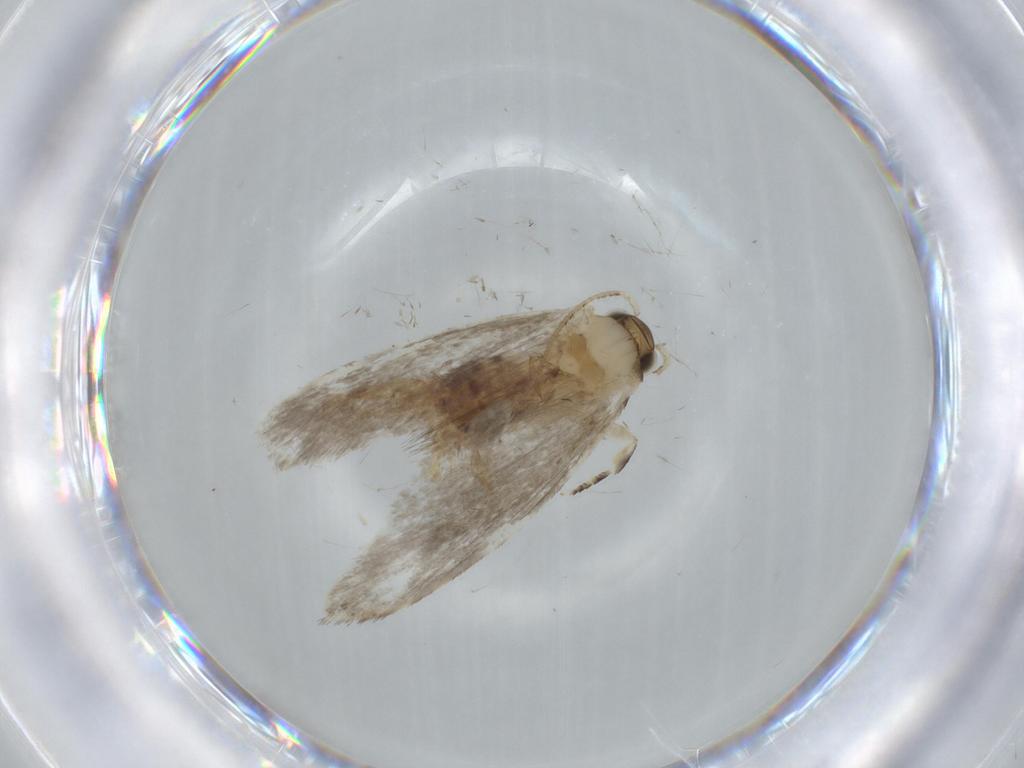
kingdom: Animalia
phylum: Arthropoda
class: Insecta
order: Lepidoptera
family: Tineidae
